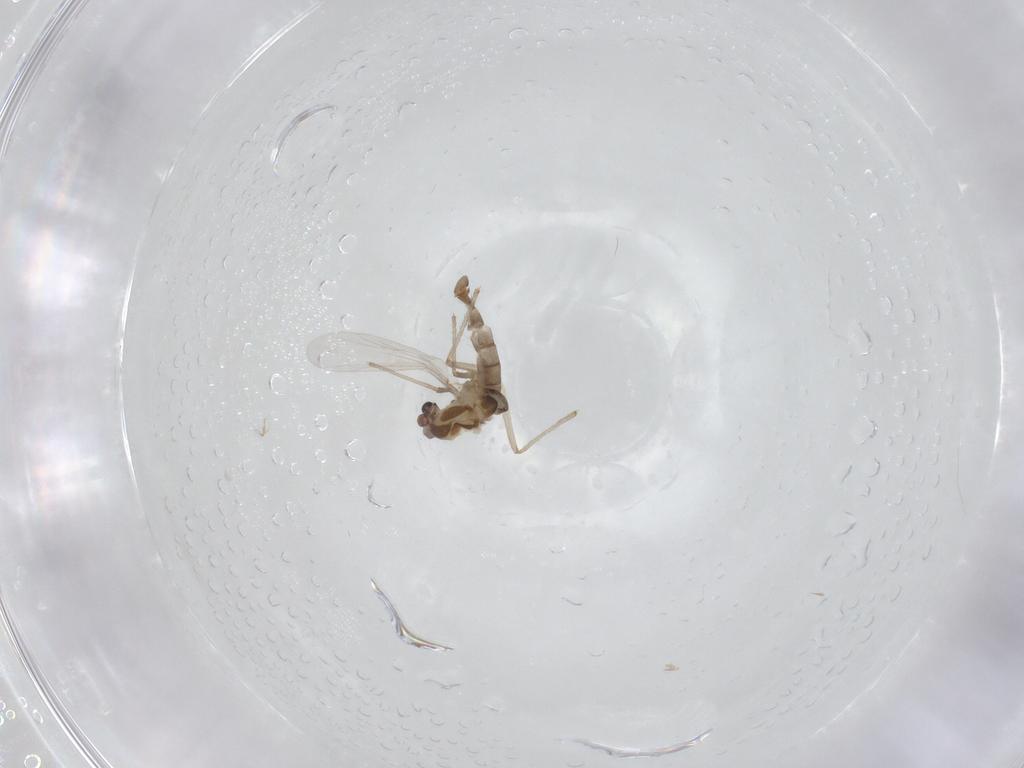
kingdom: Animalia
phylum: Arthropoda
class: Insecta
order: Diptera
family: Chironomidae
